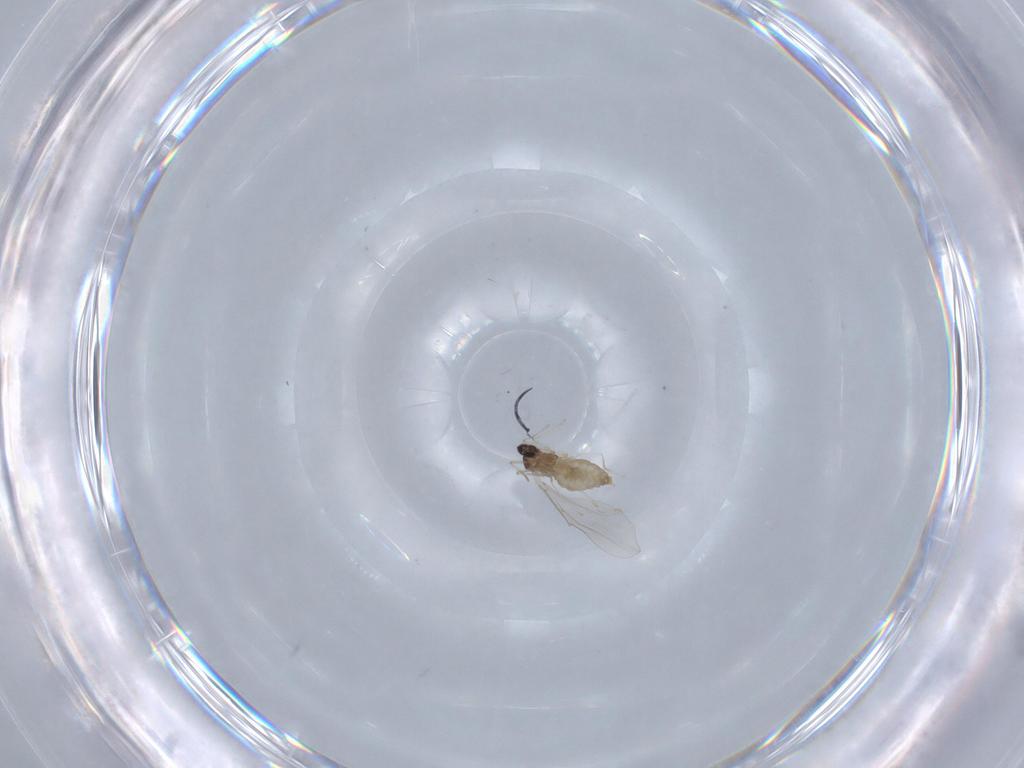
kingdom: Animalia
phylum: Arthropoda
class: Insecta
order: Diptera
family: Cecidomyiidae
